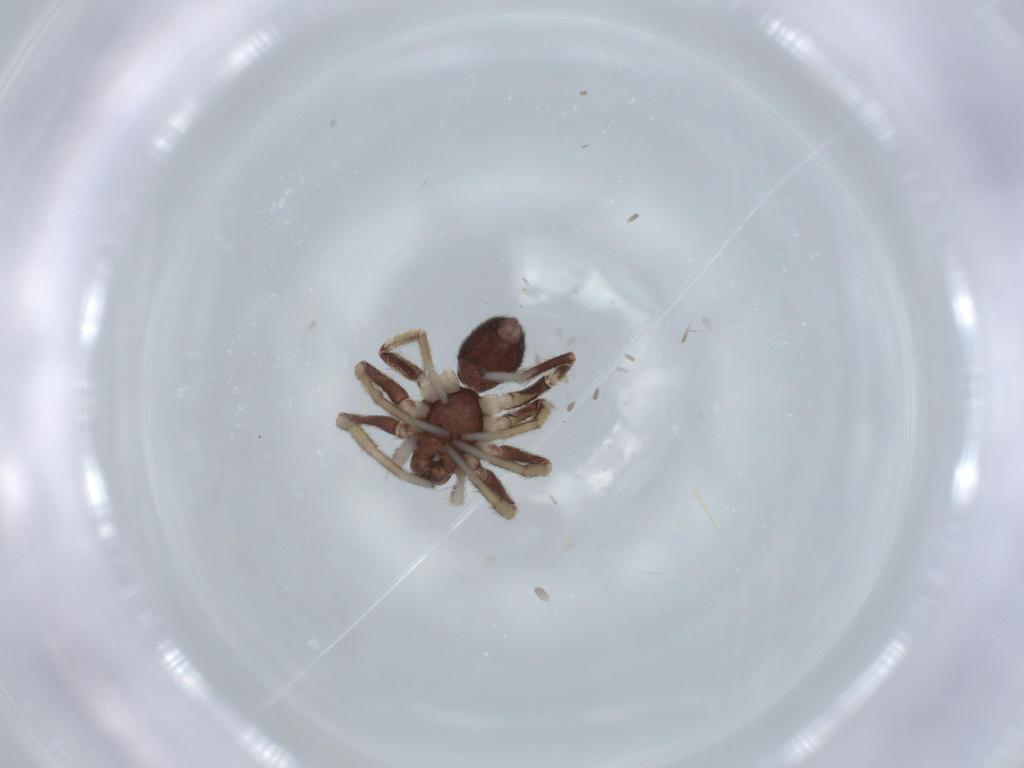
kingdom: Animalia
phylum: Arthropoda
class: Arachnida
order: Araneae
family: Corinnidae
